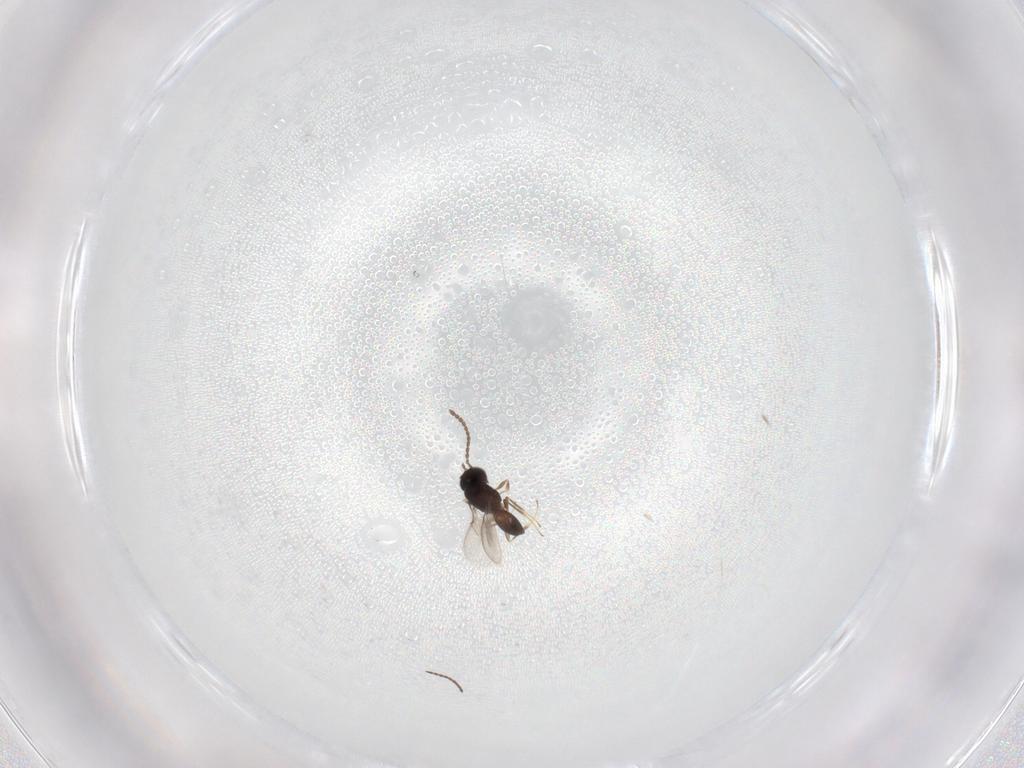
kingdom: Animalia
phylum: Arthropoda
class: Insecta
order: Hymenoptera
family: Scelionidae
